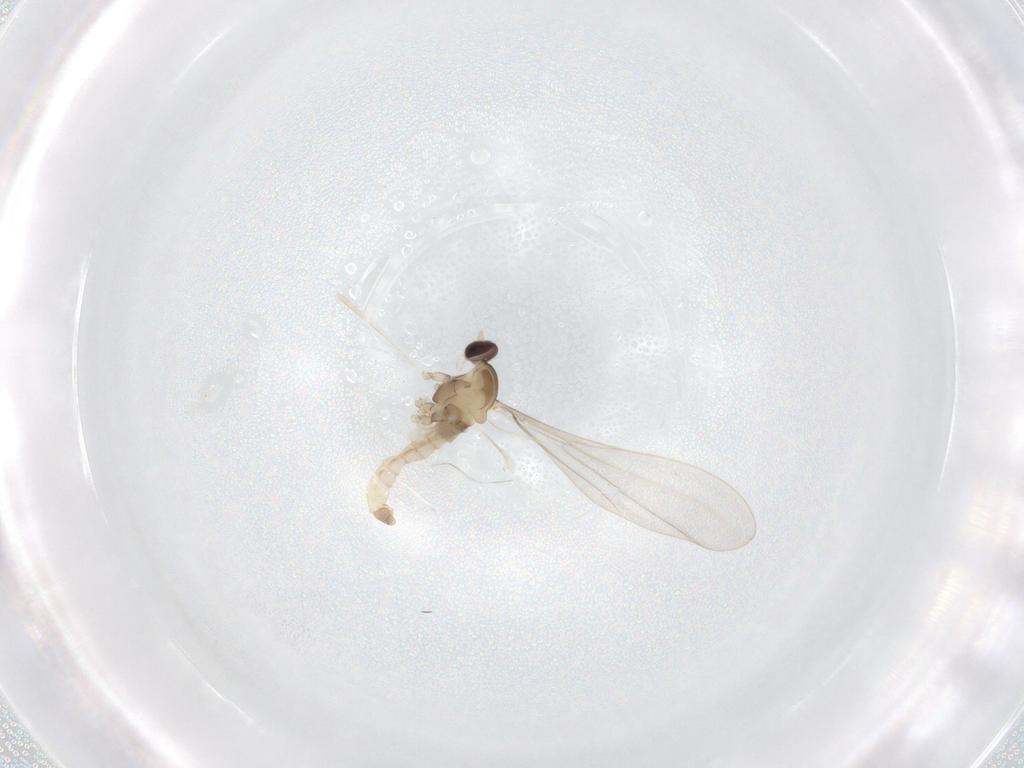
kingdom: Animalia
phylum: Arthropoda
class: Insecta
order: Diptera
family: Cecidomyiidae
